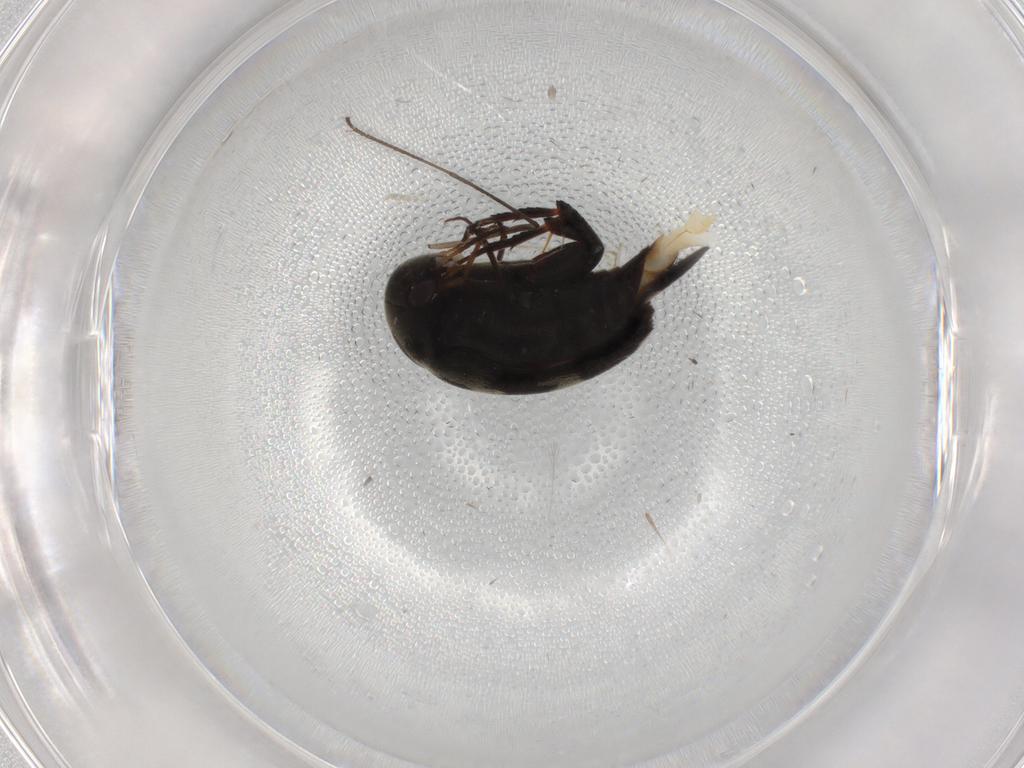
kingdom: Animalia
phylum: Arthropoda
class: Insecta
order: Coleoptera
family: Mordellidae
